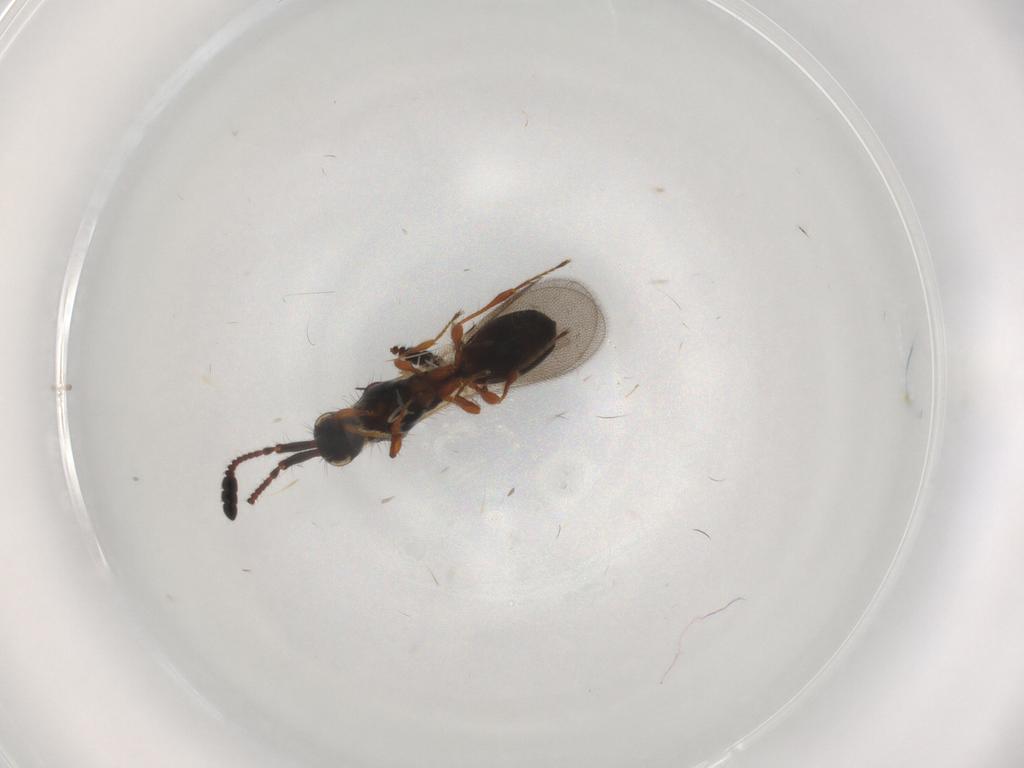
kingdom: Animalia
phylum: Arthropoda
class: Insecta
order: Hymenoptera
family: Diapriidae
